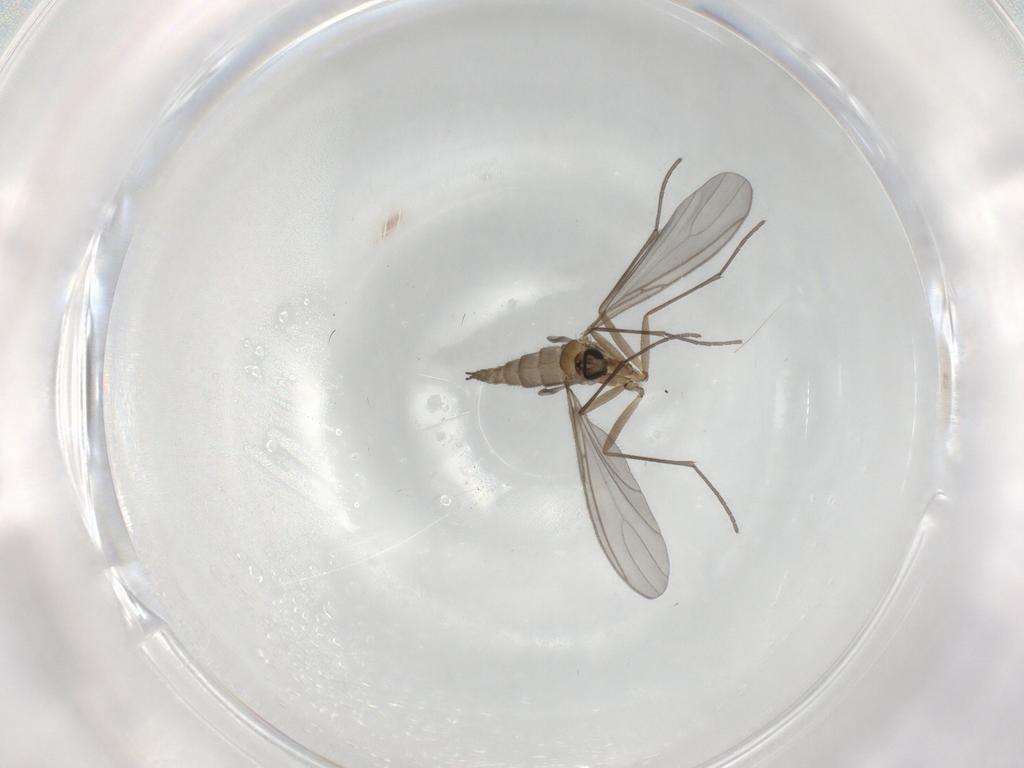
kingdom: Animalia
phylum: Arthropoda
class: Insecta
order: Diptera
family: Sciaridae
